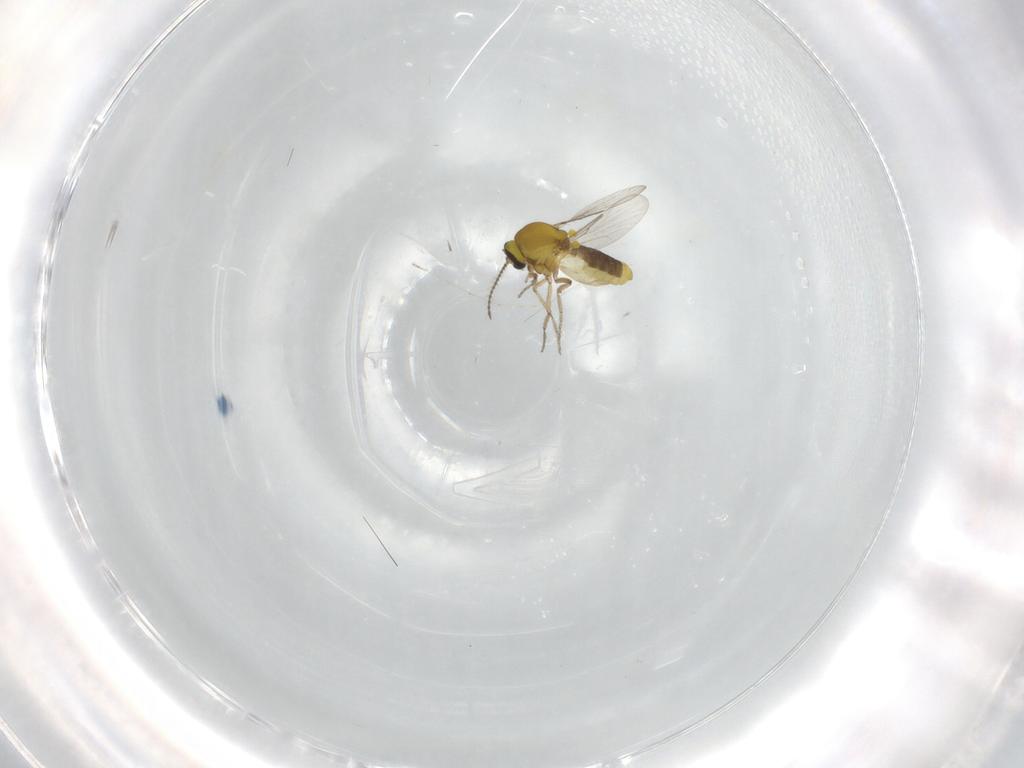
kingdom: Animalia
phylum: Arthropoda
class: Insecta
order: Diptera
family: Ceratopogonidae
